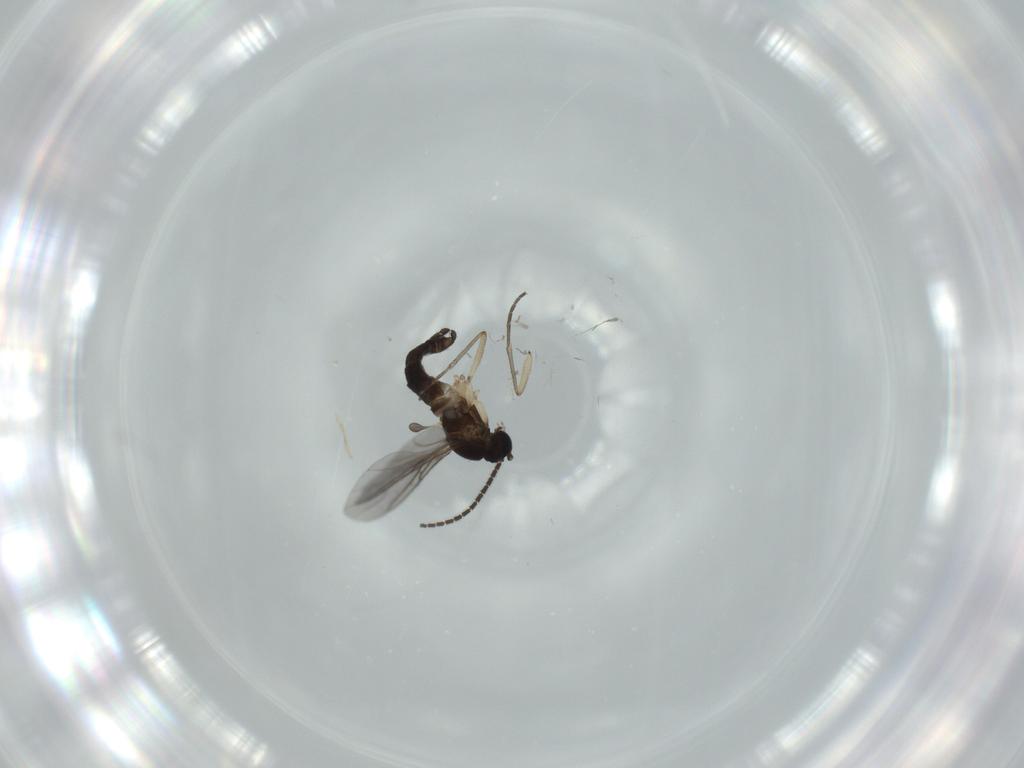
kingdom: Animalia
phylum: Arthropoda
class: Insecta
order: Diptera
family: Sciaridae
